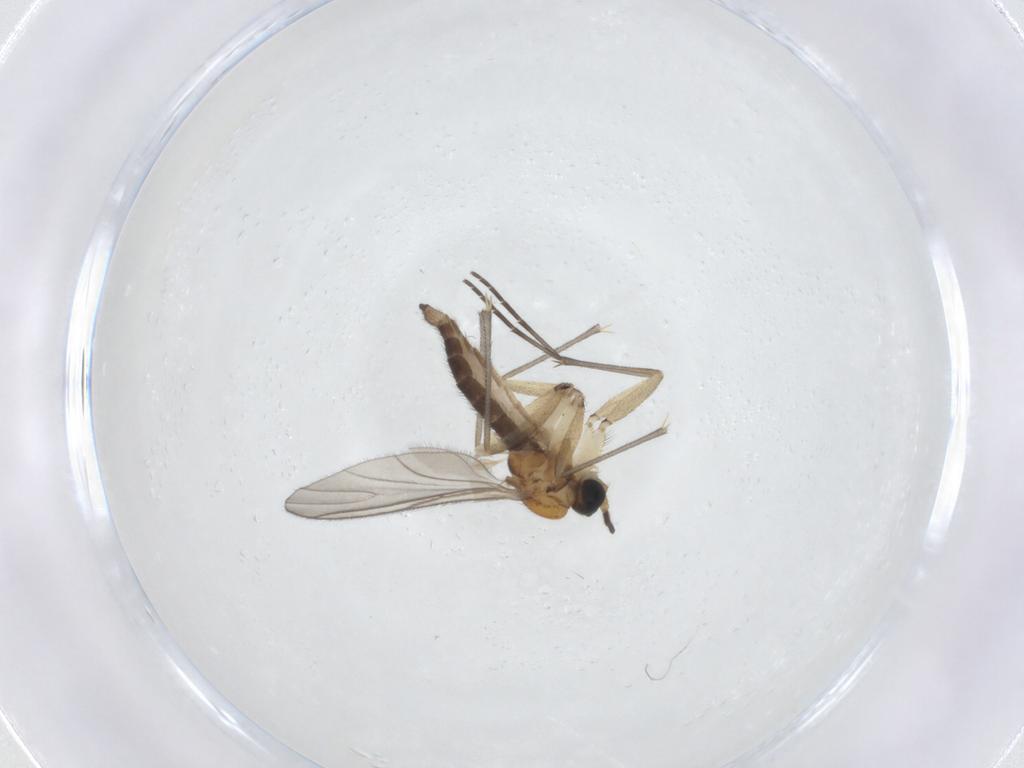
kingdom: Animalia
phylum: Arthropoda
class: Insecta
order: Diptera
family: Sciaridae
